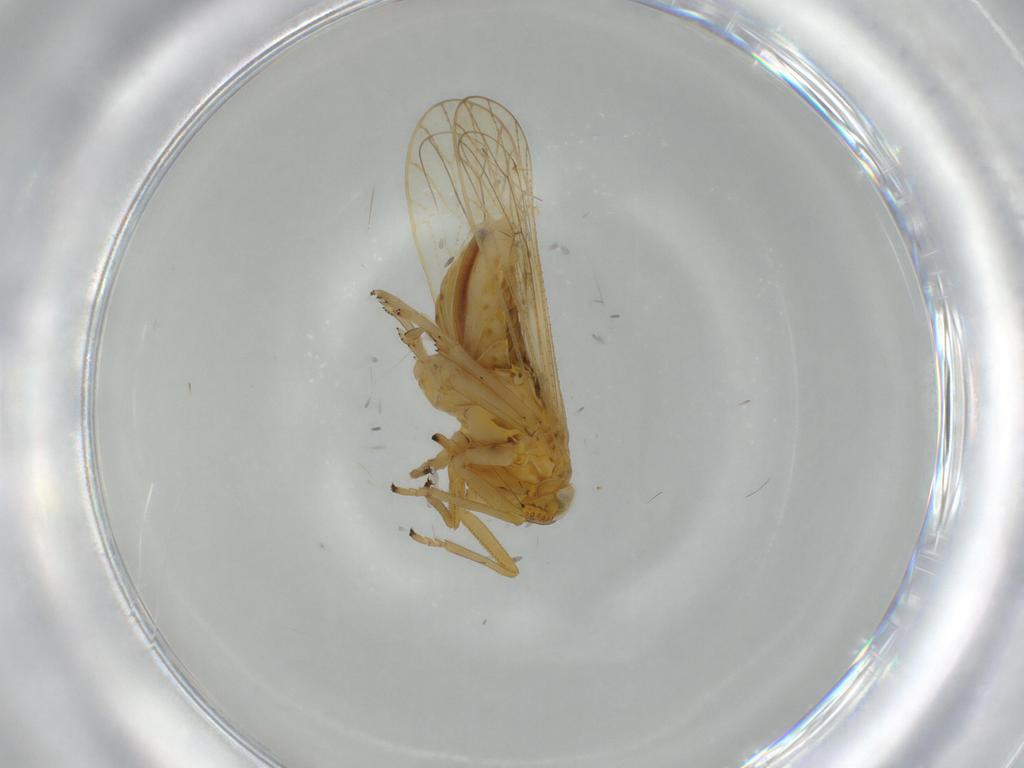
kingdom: Animalia
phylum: Arthropoda
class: Insecta
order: Hemiptera
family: Delphacidae
